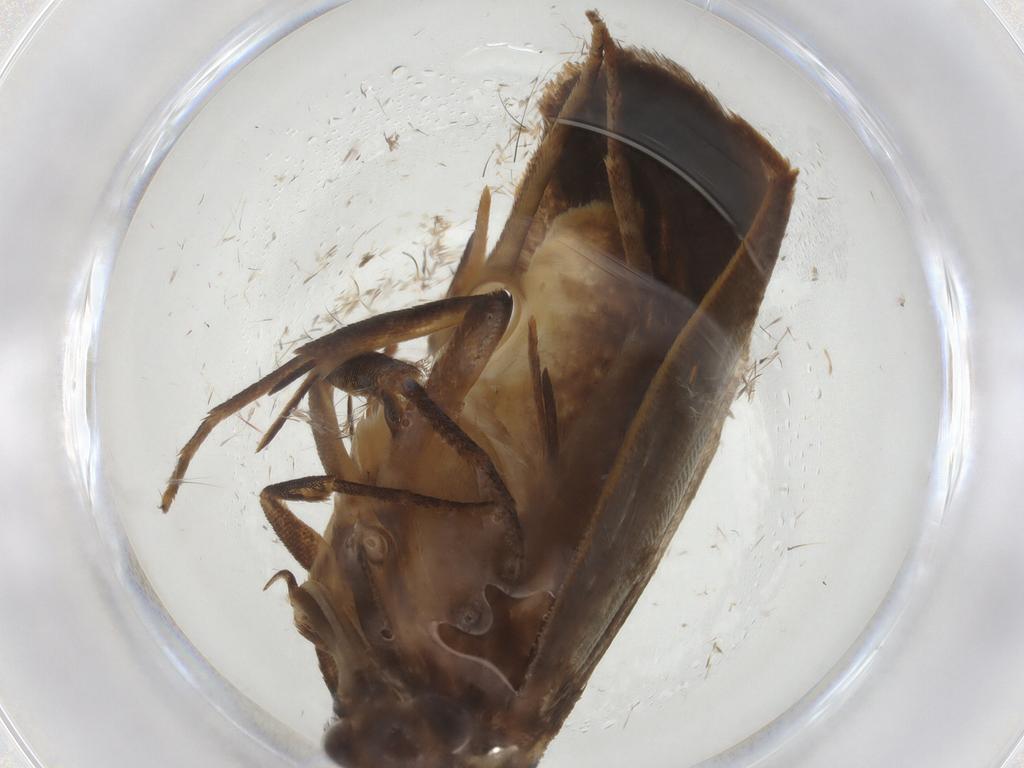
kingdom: Animalia
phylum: Arthropoda
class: Insecta
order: Lepidoptera
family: Gelechiidae
